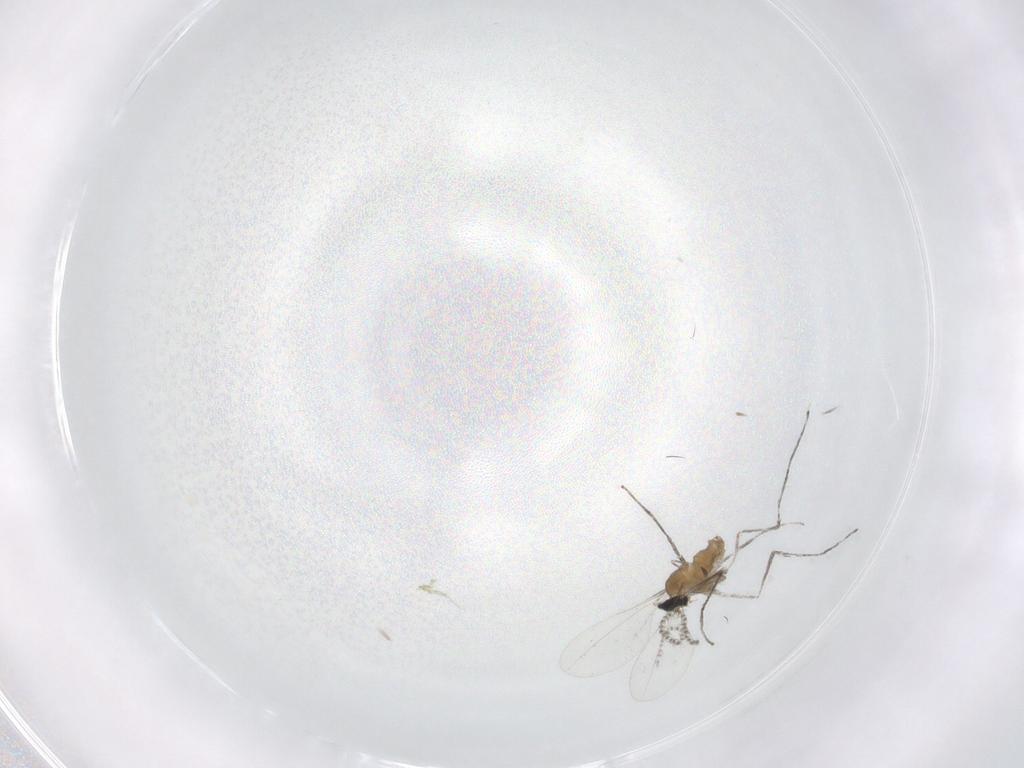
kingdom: Animalia
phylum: Arthropoda
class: Insecta
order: Diptera
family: Cecidomyiidae
